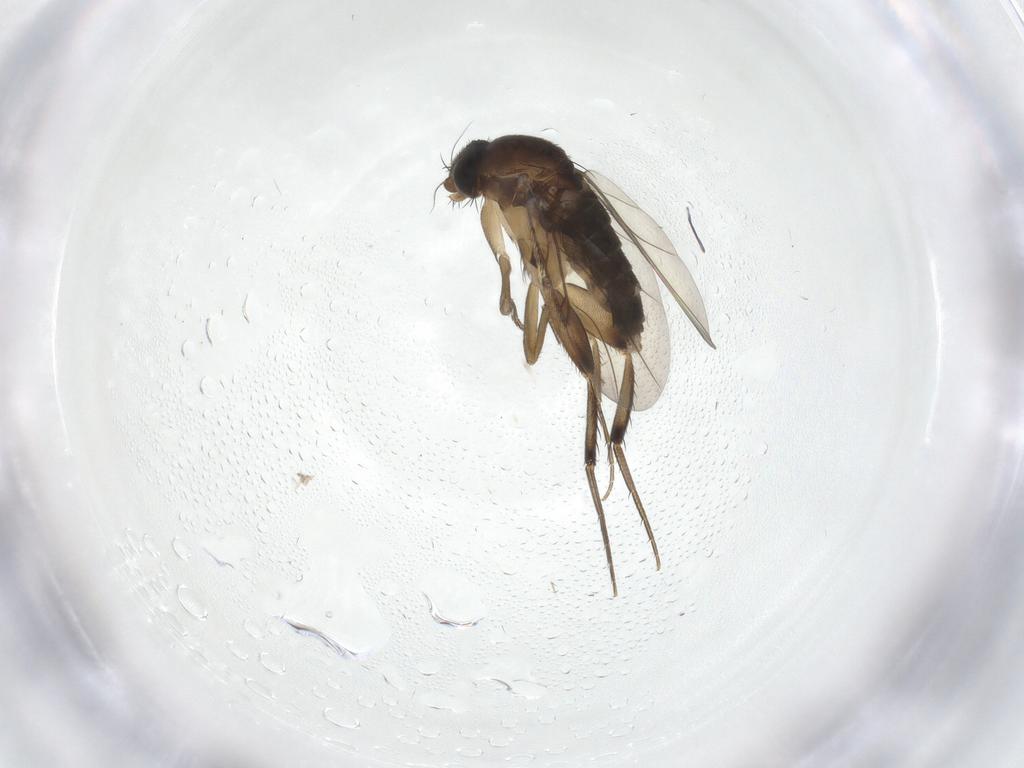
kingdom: Animalia
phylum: Arthropoda
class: Insecta
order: Diptera
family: Phoridae
